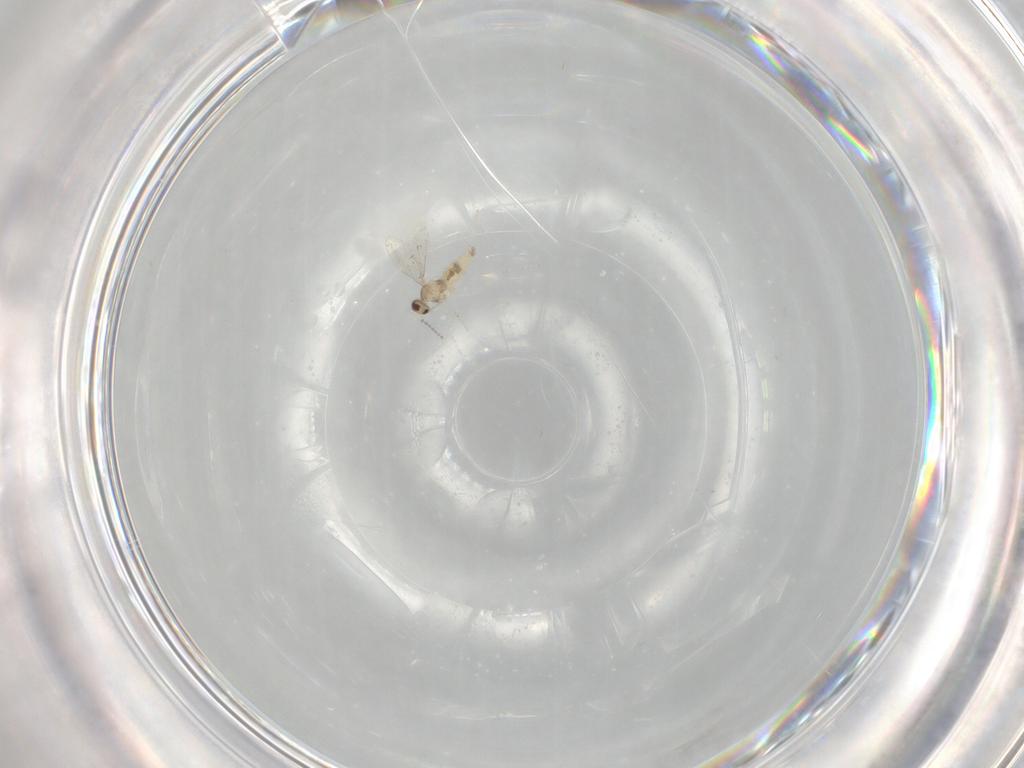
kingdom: Animalia
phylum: Arthropoda
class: Insecta
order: Diptera
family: Cecidomyiidae
